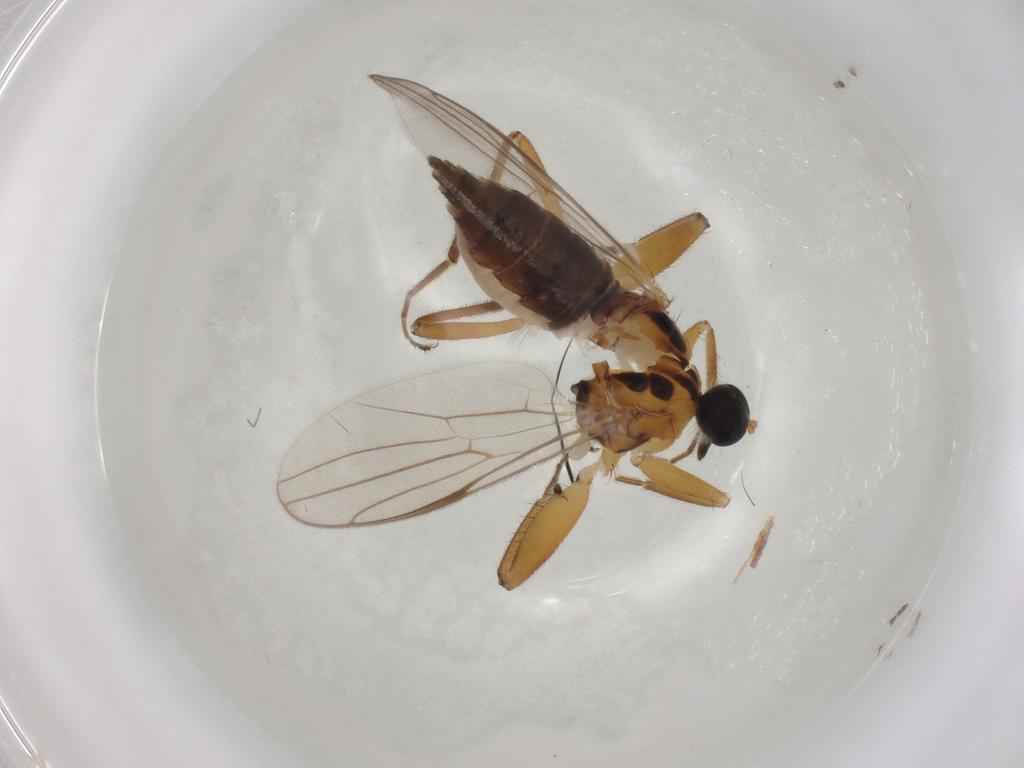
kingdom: Animalia
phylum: Arthropoda
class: Insecta
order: Diptera
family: Hybotidae
